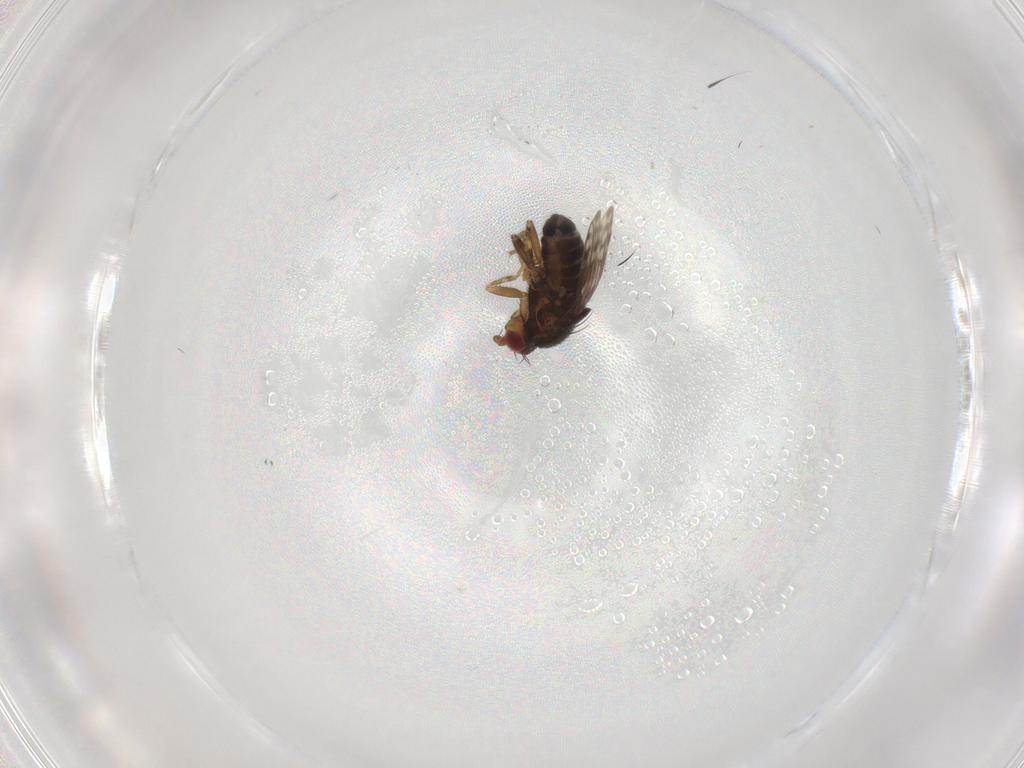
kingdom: Animalia
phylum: Arthropoda
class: Insecta
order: Diptera
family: Sphaeroceridae
